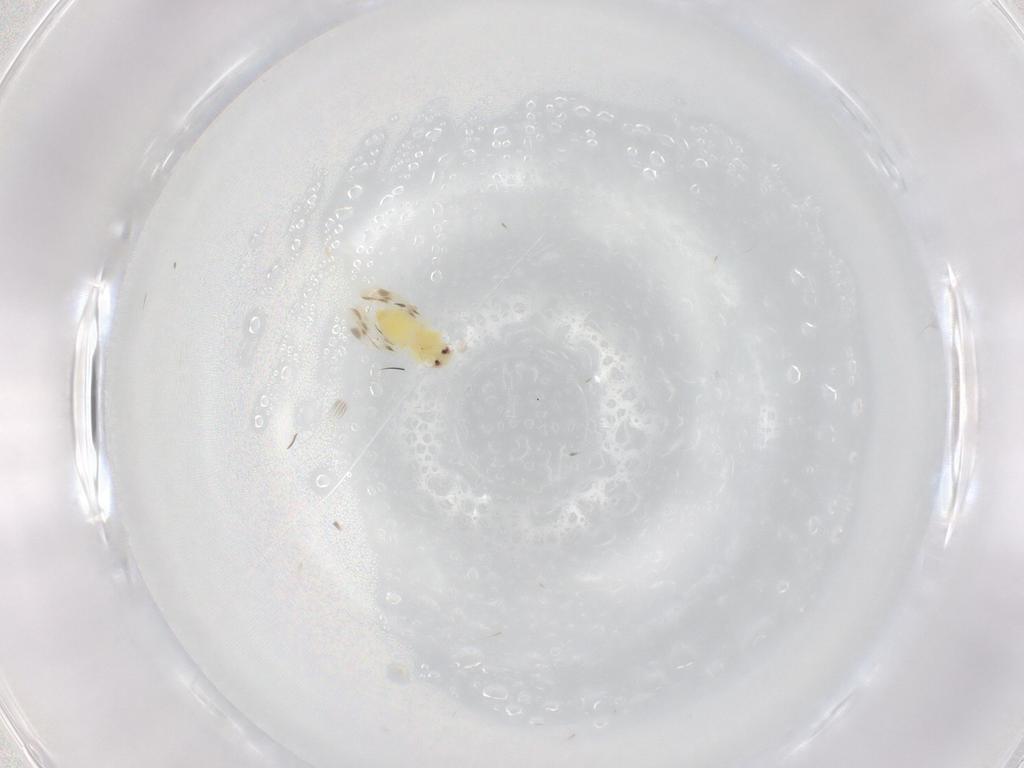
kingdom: Animalia
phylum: Arthropoda
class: Insecta
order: Hemiptera
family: Aleyrodidae
